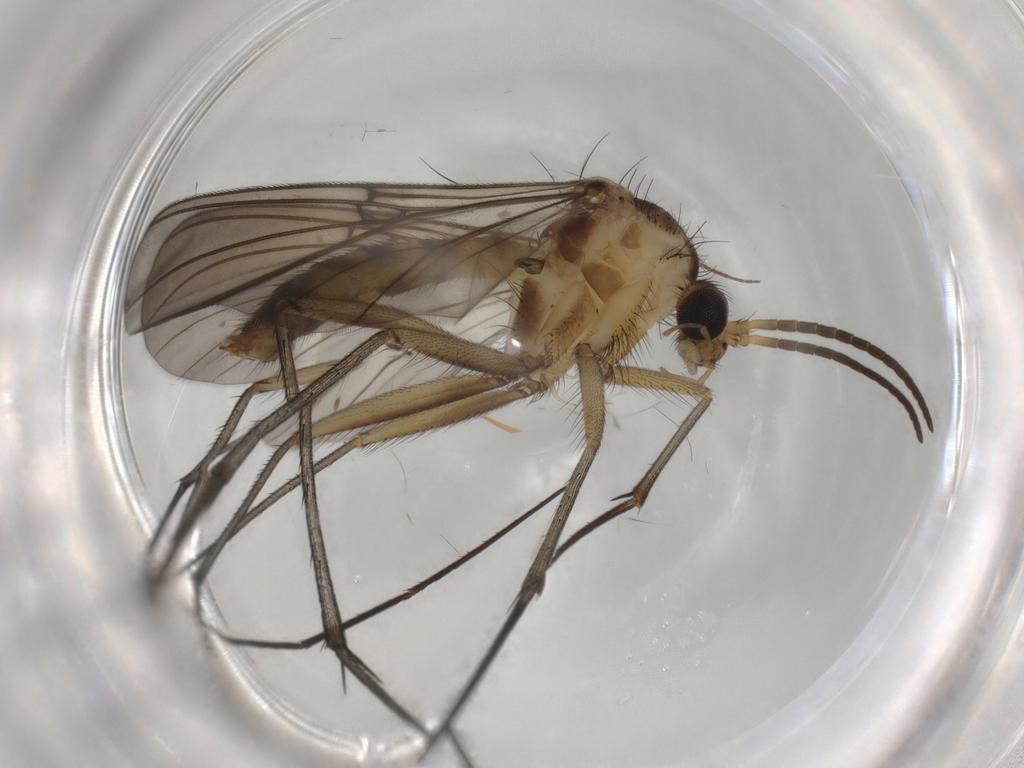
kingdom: Animalia
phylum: Arthropoda
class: Insecta
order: Diptera
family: Mycetophilidae
